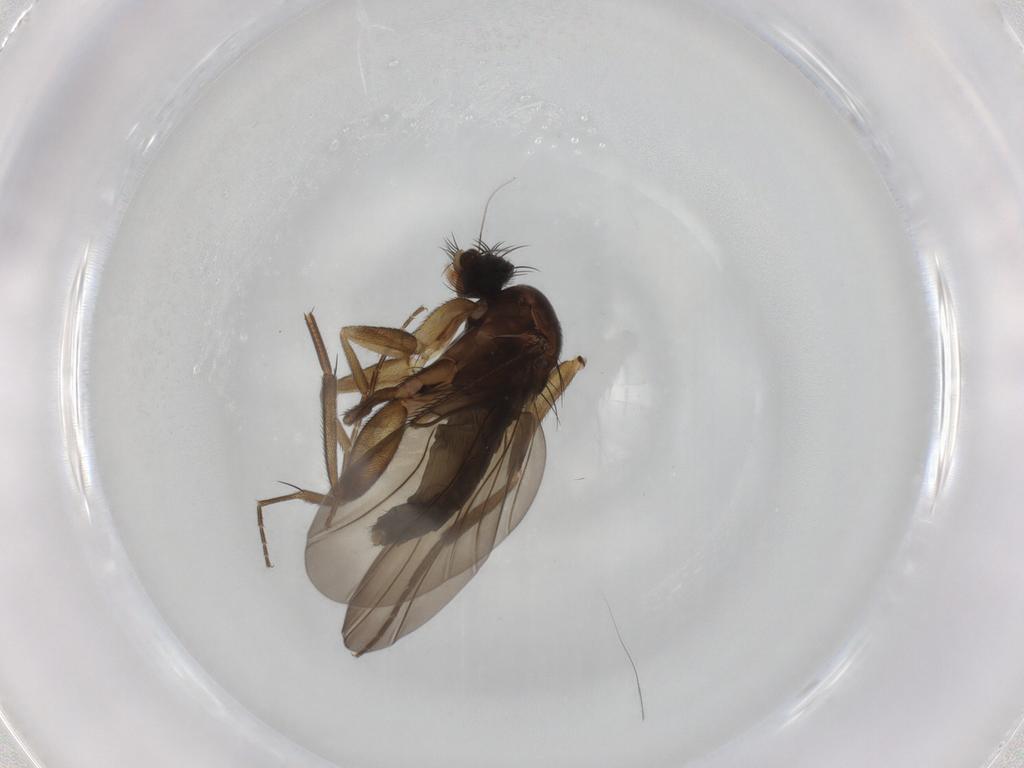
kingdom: Animalia
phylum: Arthropoda
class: Insecta
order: Diptera
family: Phoridae
